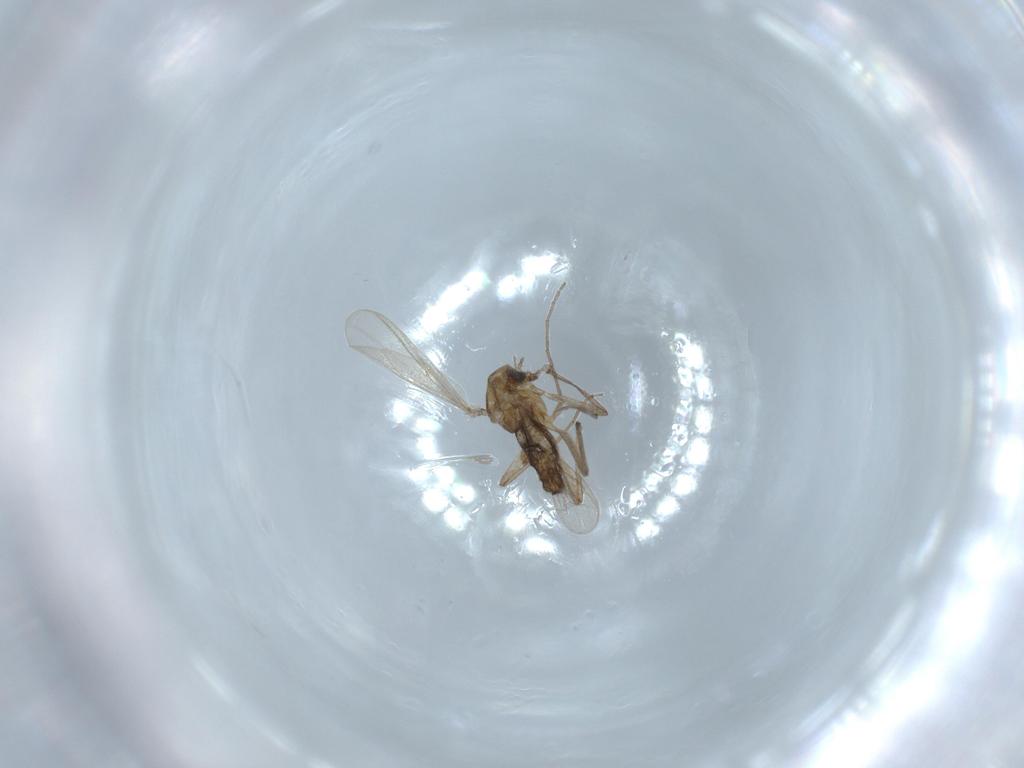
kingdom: Animalia
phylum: Arthropoda
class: Insecta
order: Diptera
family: Chironomidae
